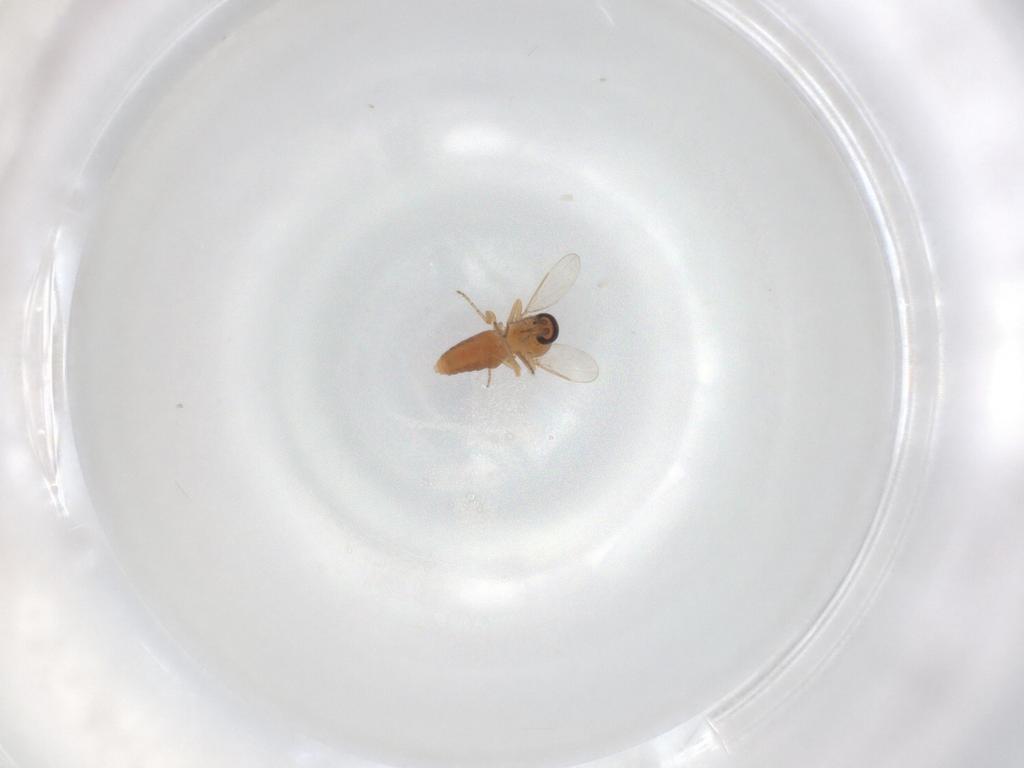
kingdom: Animalia
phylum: Arthropoda
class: Insecta
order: Diptera
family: Ceratopogonidae
